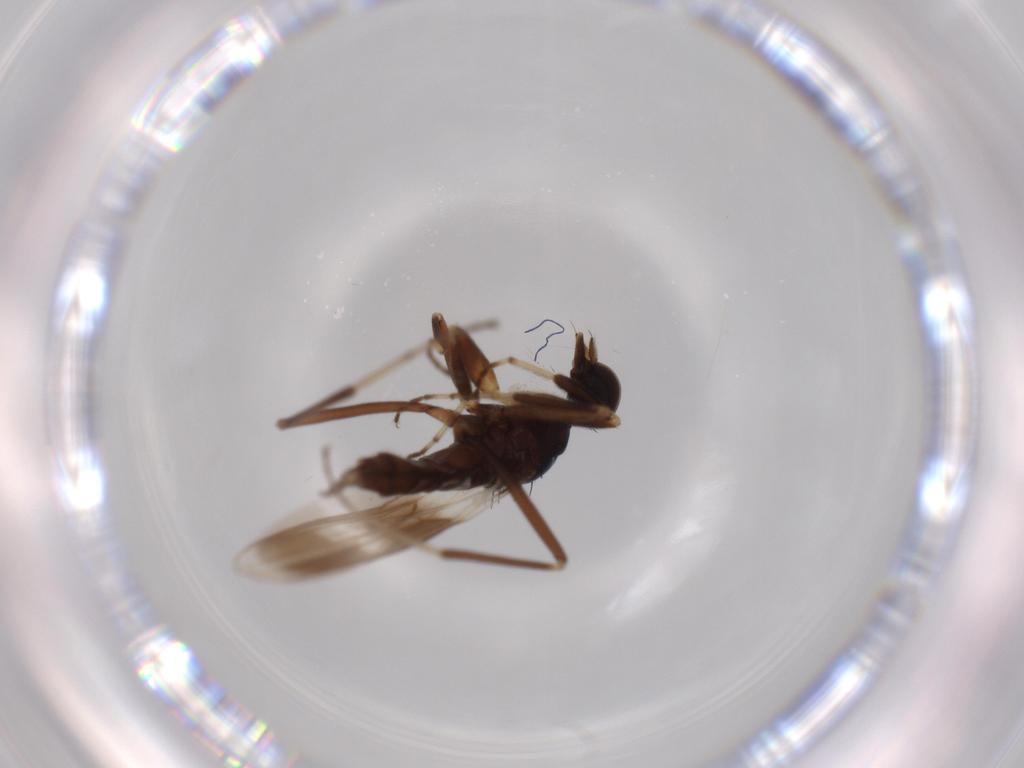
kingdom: Animalia
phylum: Arthropoda
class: Insecta
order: Diptera
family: Hybotidae
